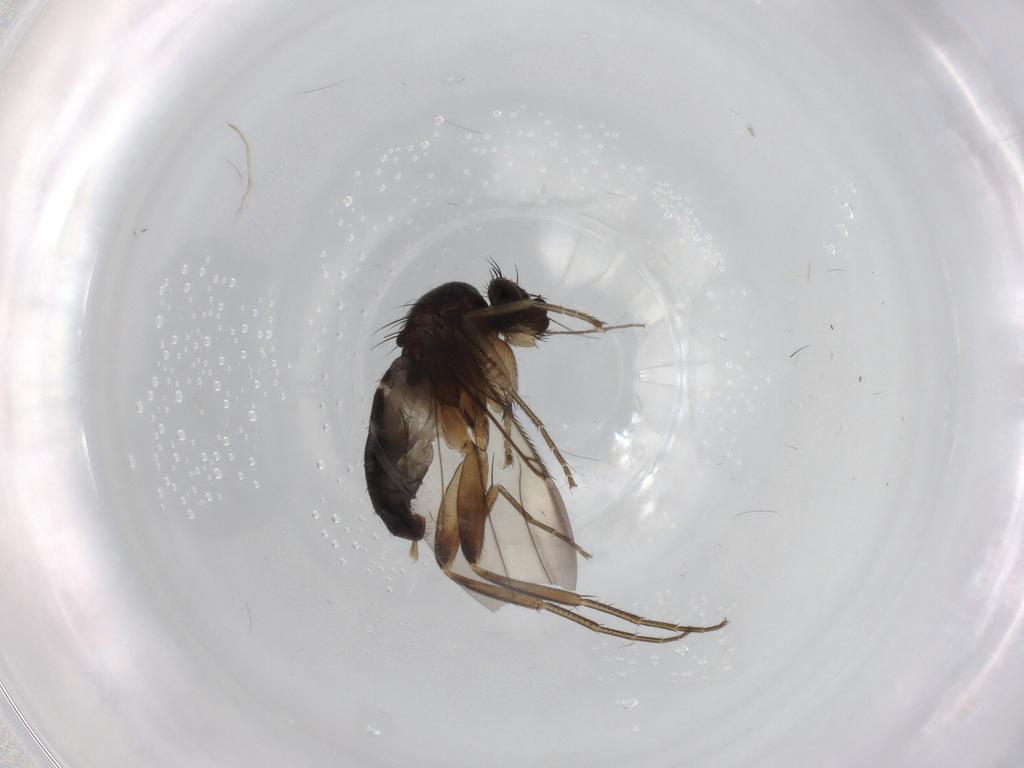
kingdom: Animalia
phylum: Arthropoda
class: Insecta
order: Diptera
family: Phoridae
